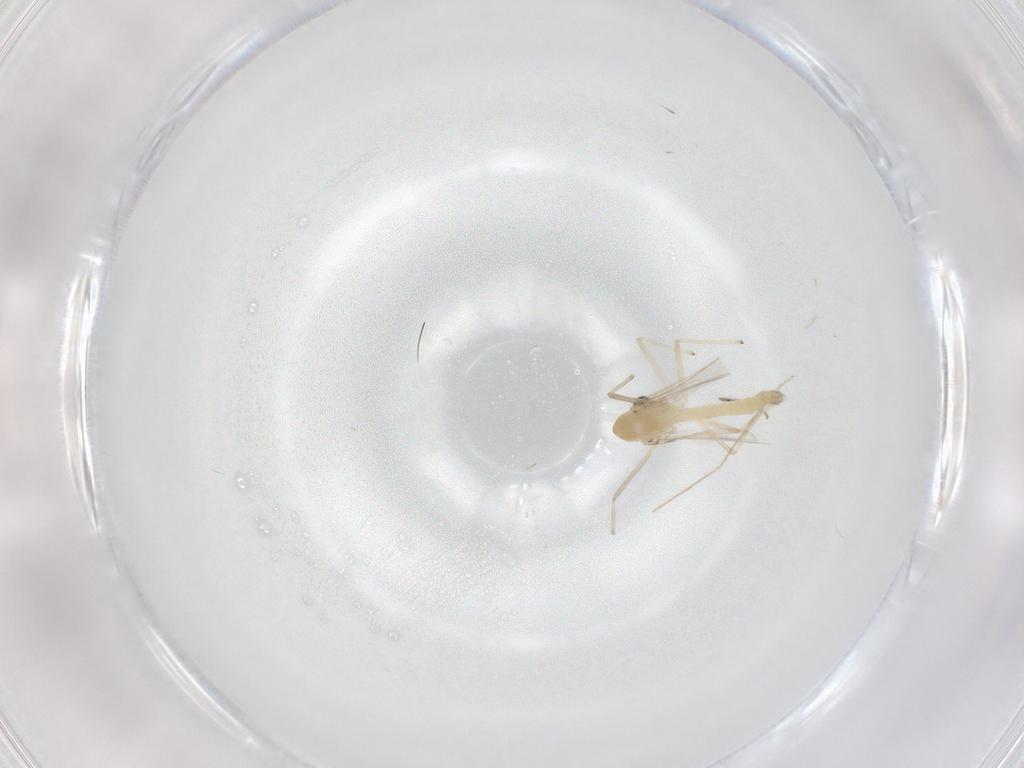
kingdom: Animalia
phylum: Arthropoda
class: Insecta
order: Diptera
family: Chironomidae
